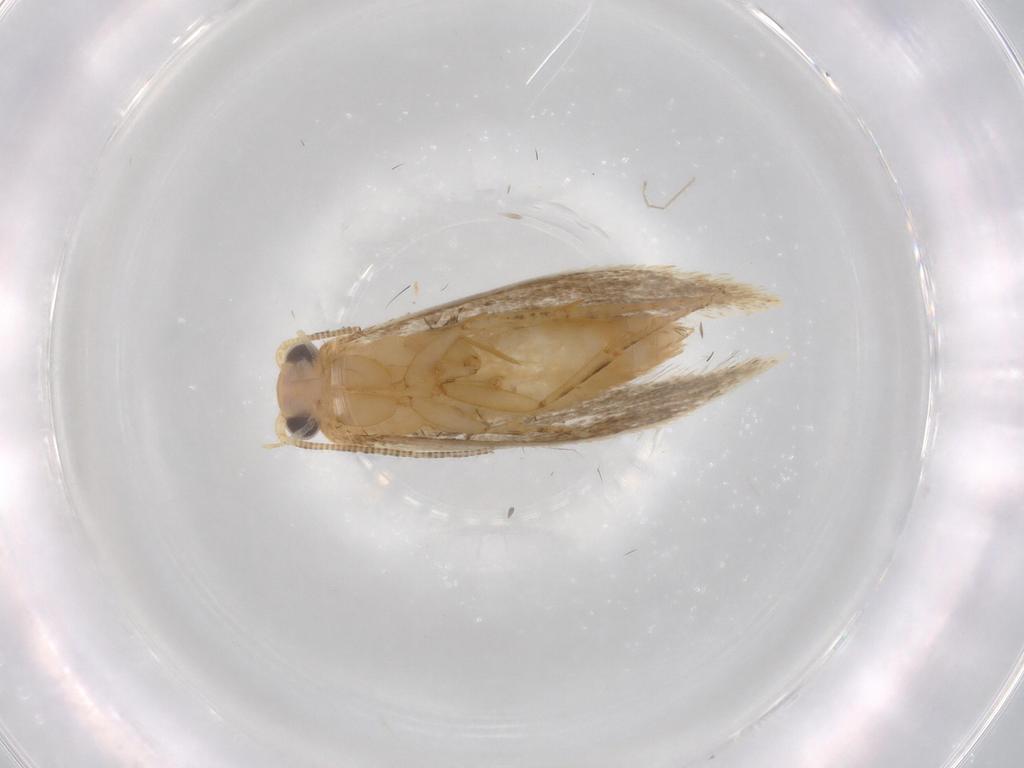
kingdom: Animalia
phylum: Arthropoda
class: Insecta
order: Lepidoptera
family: Tineidae
